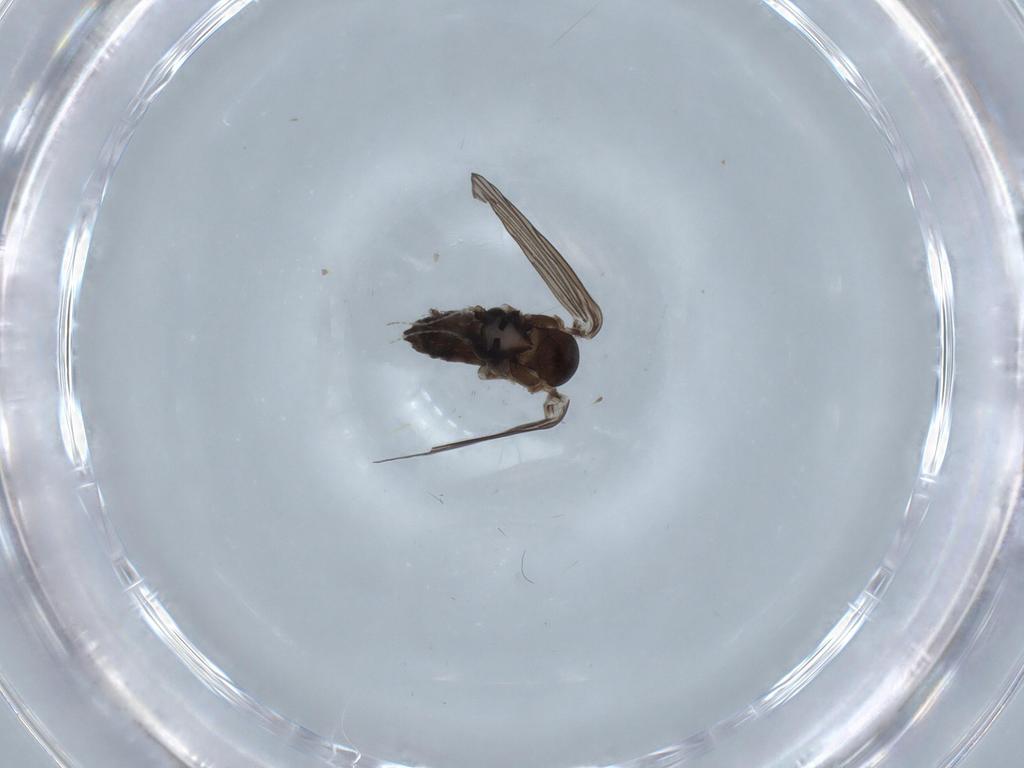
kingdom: Animalia
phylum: Arthropoda
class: Insecta
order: Diptera
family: Psychodidae
